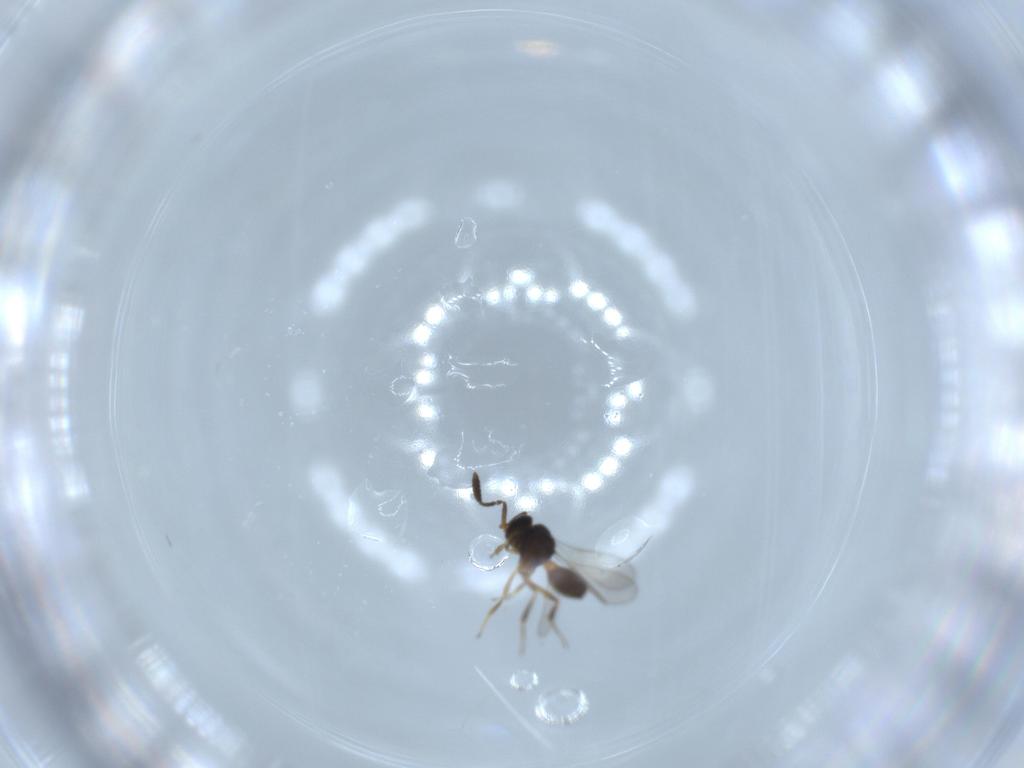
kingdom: Animalia
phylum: Arthropoda
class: Insecta
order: Hymenoptera
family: Scelionidae
